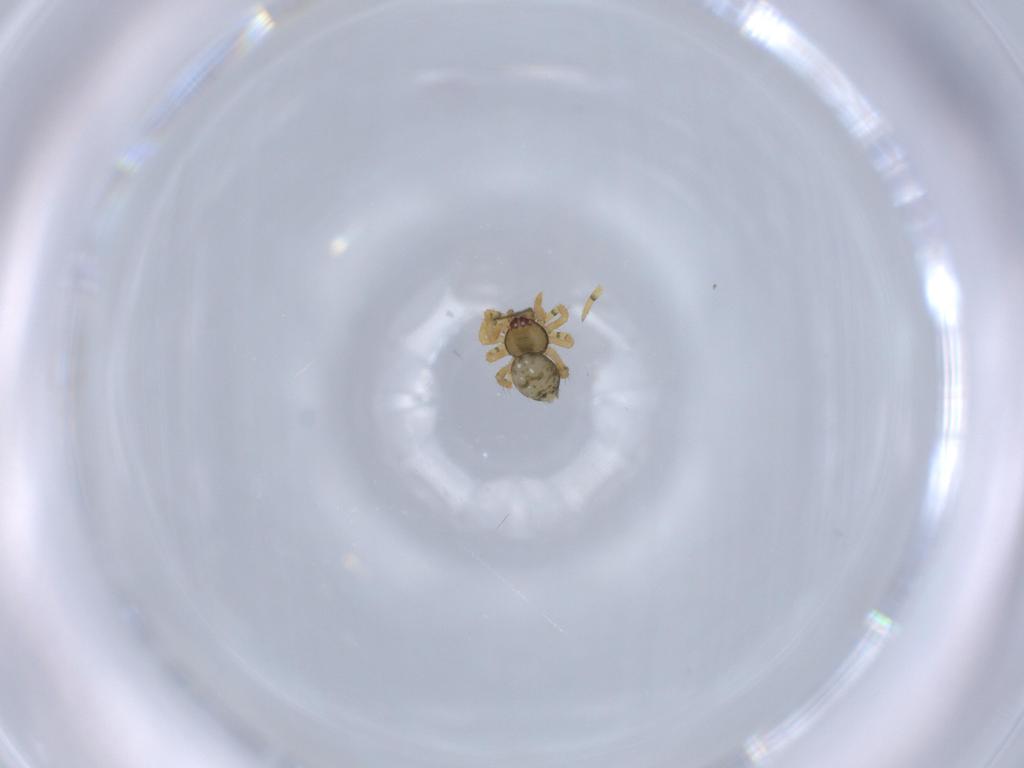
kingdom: Animalia
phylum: Arthropoda
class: Arachnida
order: Araneae
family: Theridiidae
